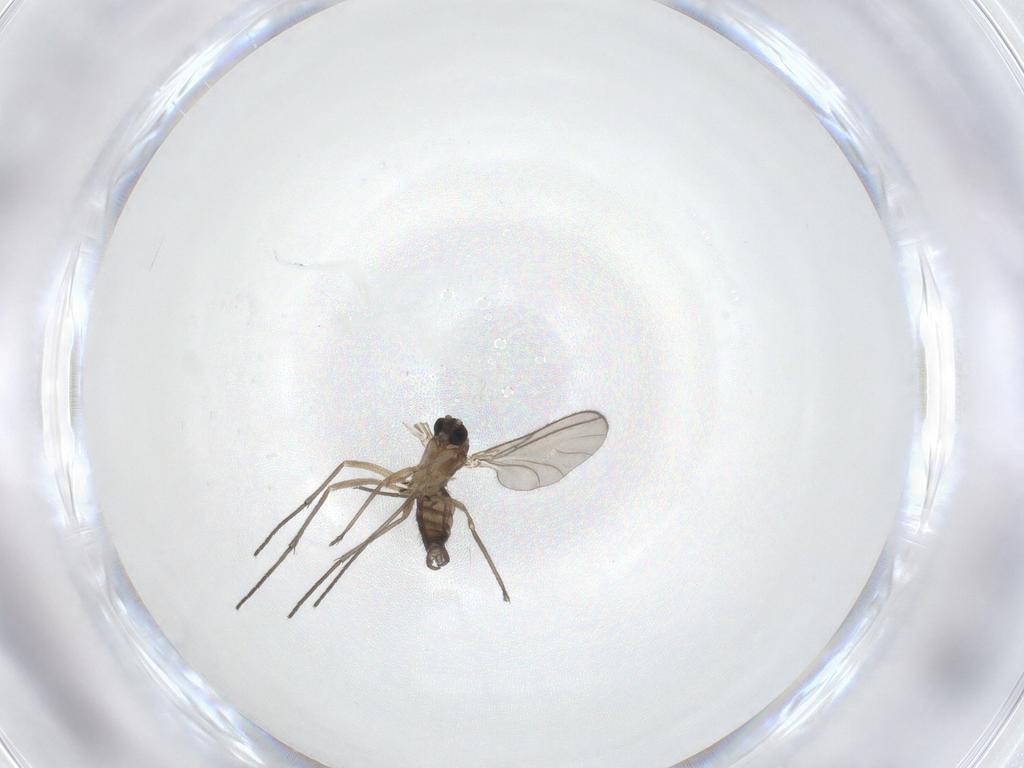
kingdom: Animalia
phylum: Arthropoda
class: Insecta
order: Diptera
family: Sciaridae
